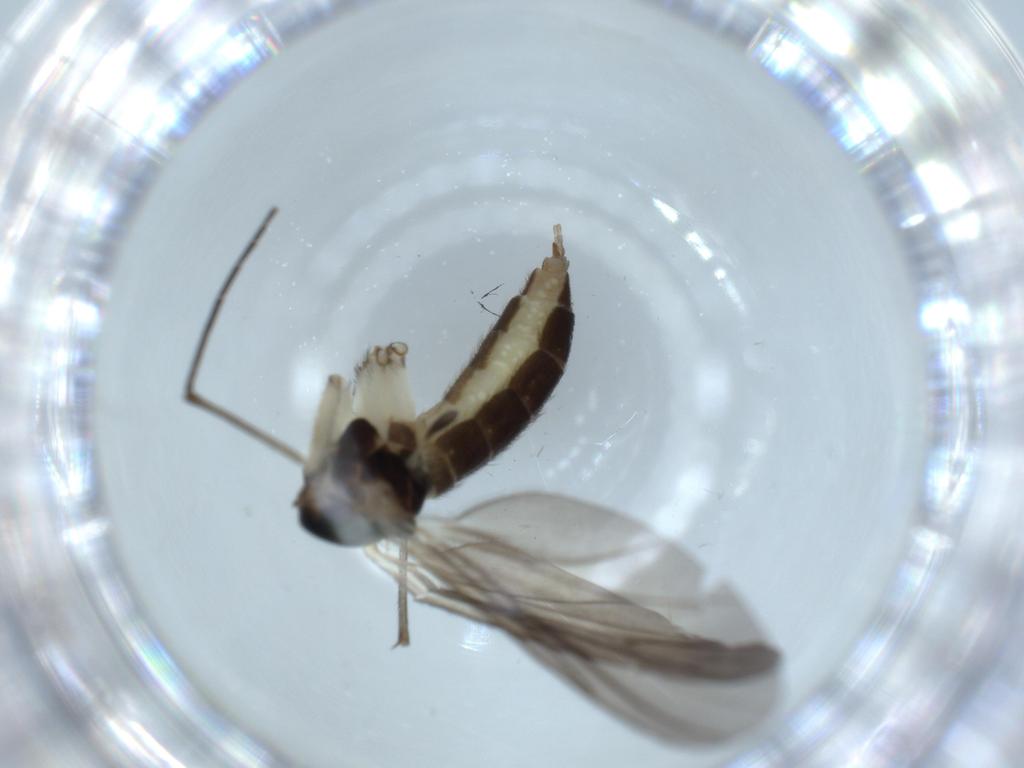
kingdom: Animalia
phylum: Arthropoda
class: Insecta
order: Diptera
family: Sciaridae
